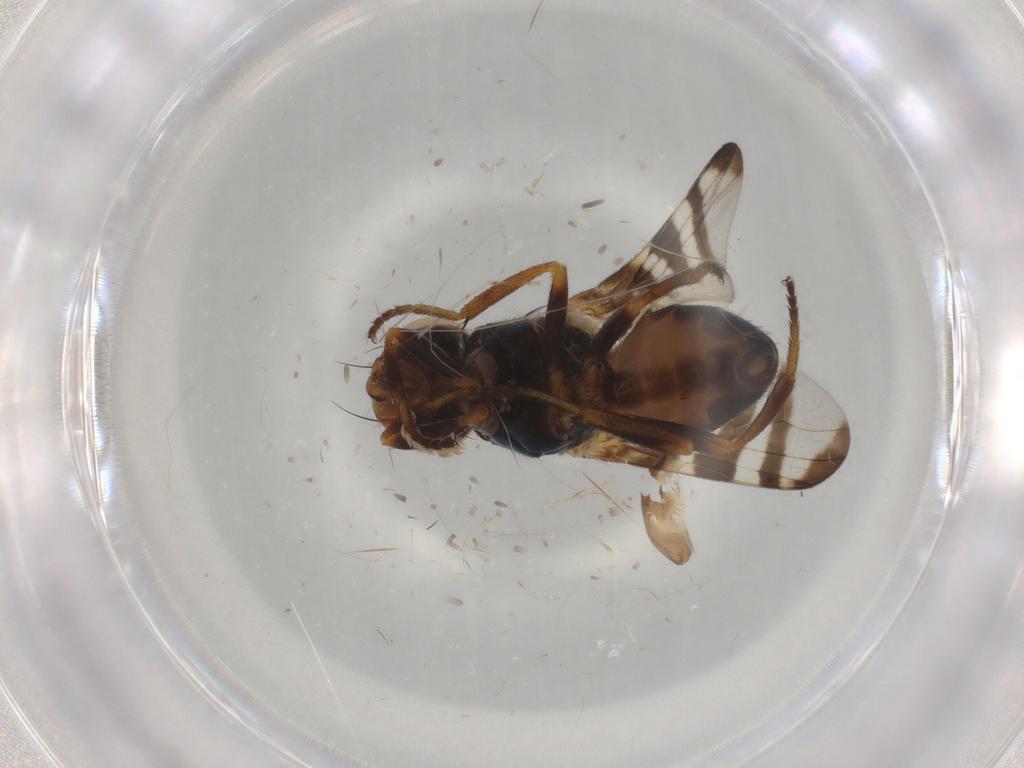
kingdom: Animalia
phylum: Arthropoda
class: Insecta
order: Diptera
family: Platystomatidae
